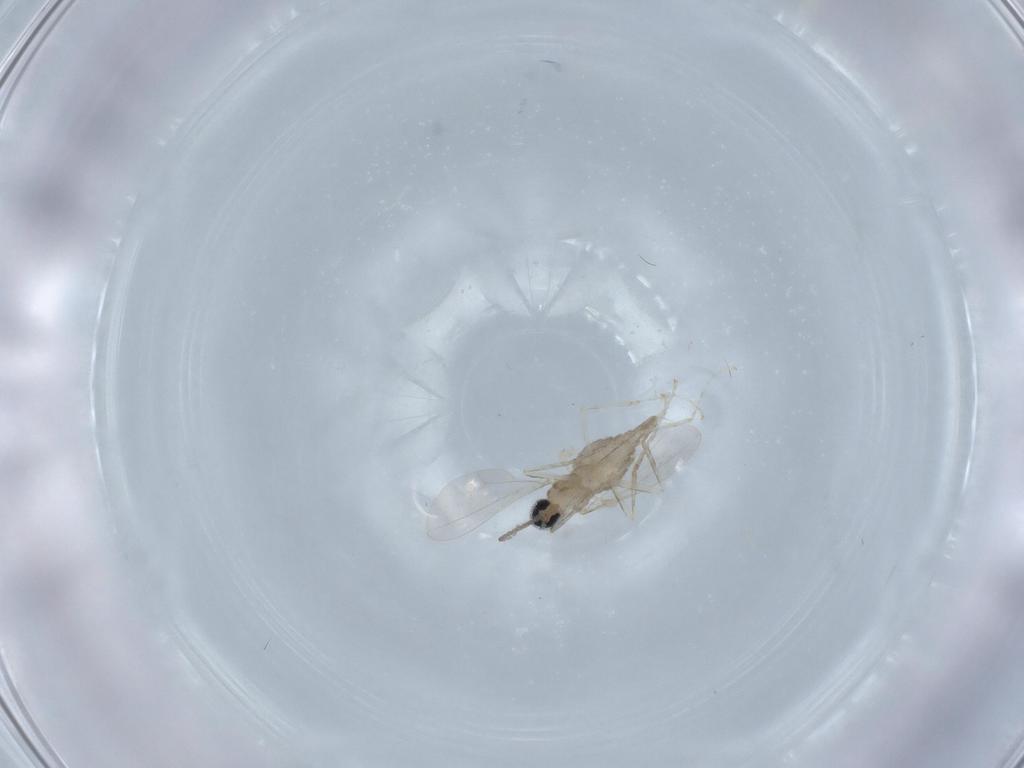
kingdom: Animalia
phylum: Arthropoda
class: Insecta
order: Diptera
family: Cecidomyiidae
